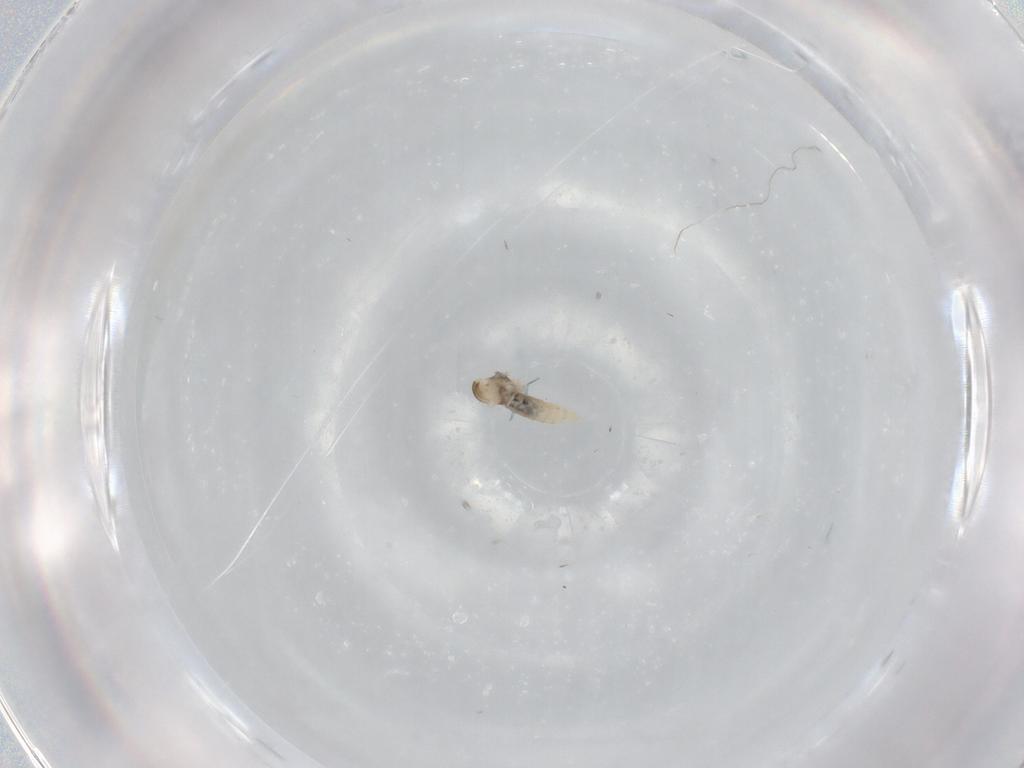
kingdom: Animalia
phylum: Arthropoda
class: Insecta
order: Diptera
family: Cecidomyiidae
